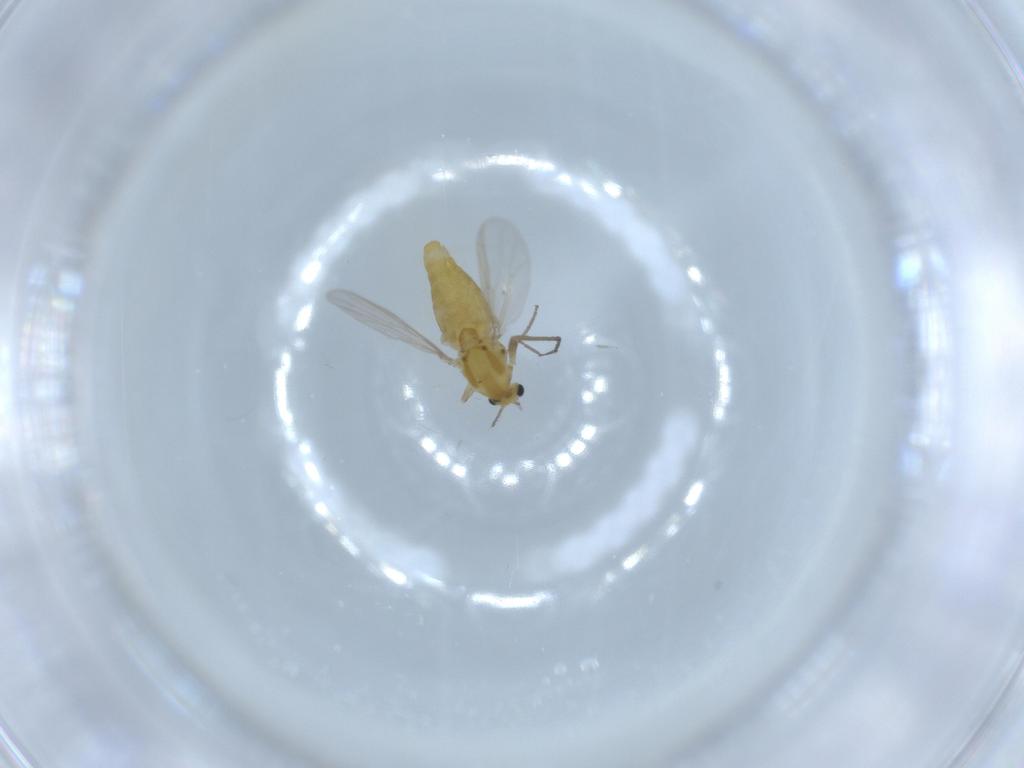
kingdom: Animalia
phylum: Arthropoda
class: Insecta
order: Diptera
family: Chironomidae
